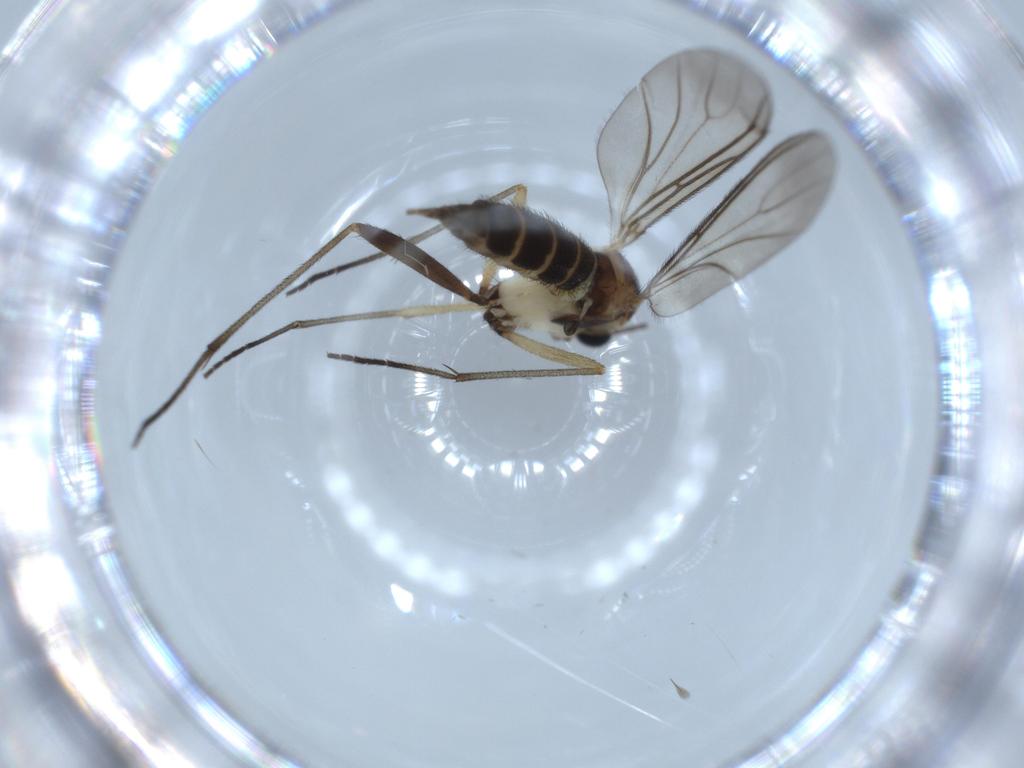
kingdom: Animalia
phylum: Arthropoda
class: Insecta
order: Diptera
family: Sciaridae
